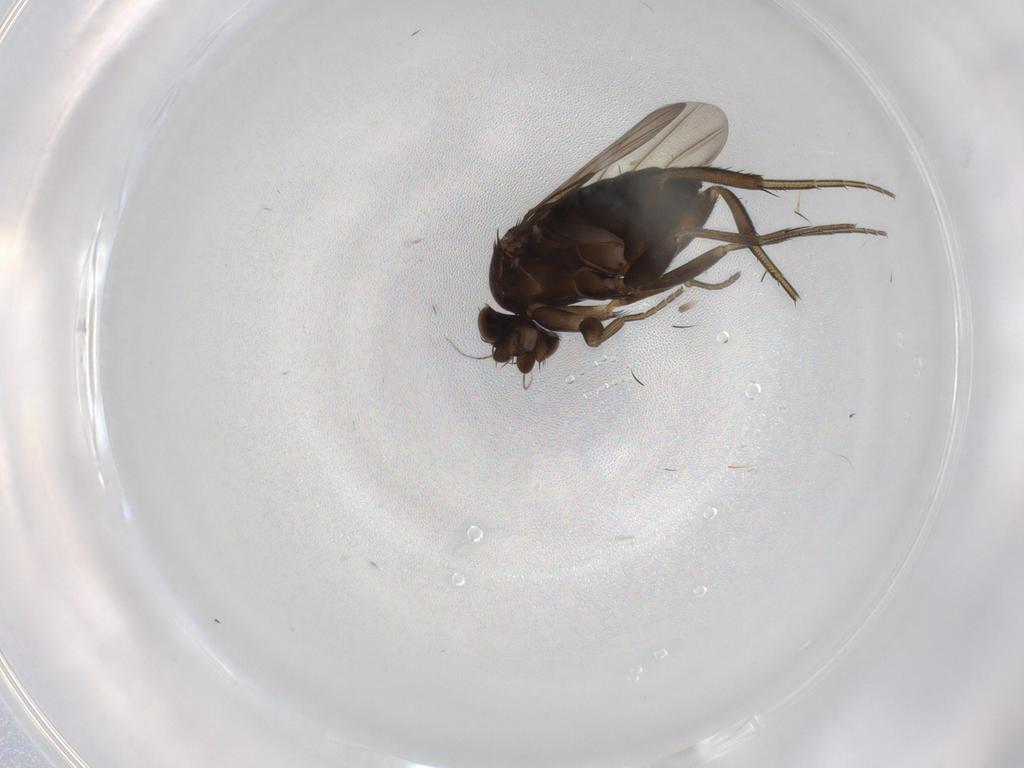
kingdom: Animalia
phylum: Arthropoda
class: Insecta
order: Diptera
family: Phoridae
